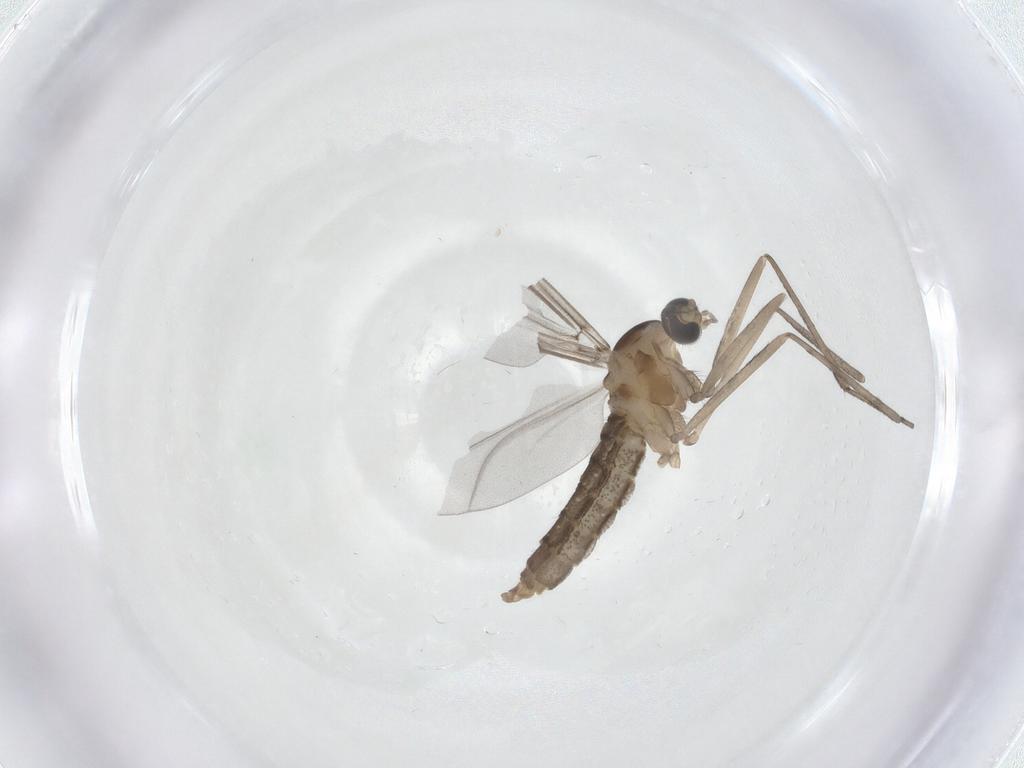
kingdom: Animalia
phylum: Arthropoda
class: Insecta
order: Diptera
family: Cecidomyiidae
